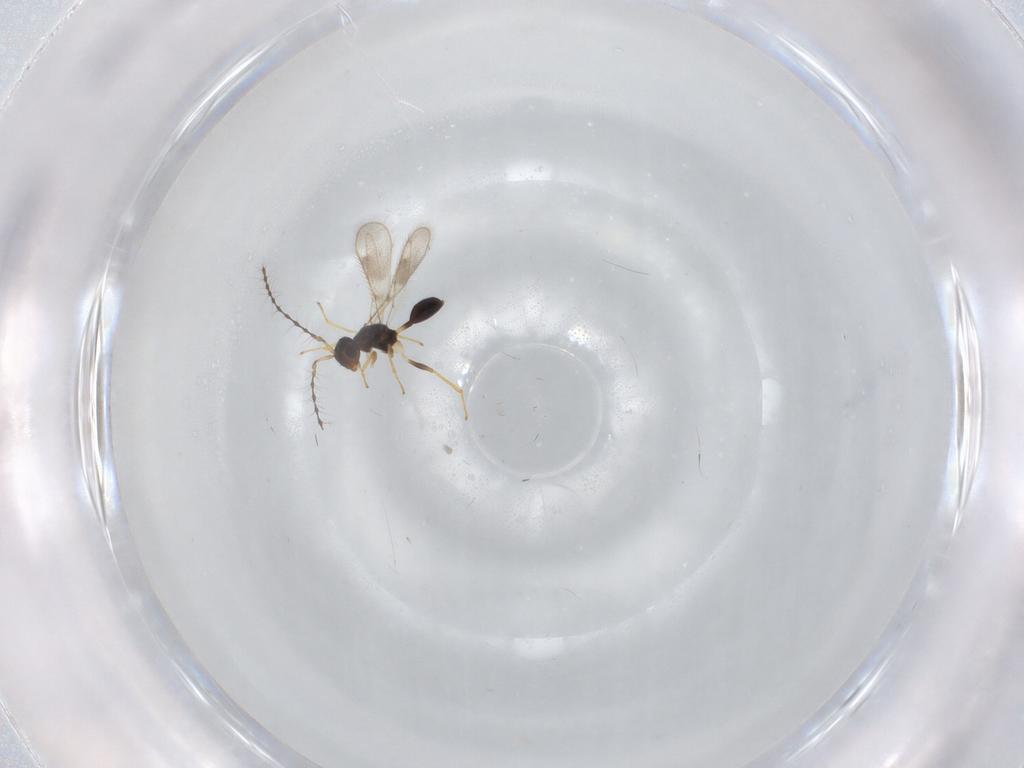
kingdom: Animalia
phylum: Arthropoda
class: Insecta
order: Hymenoptera
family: Diparidae
